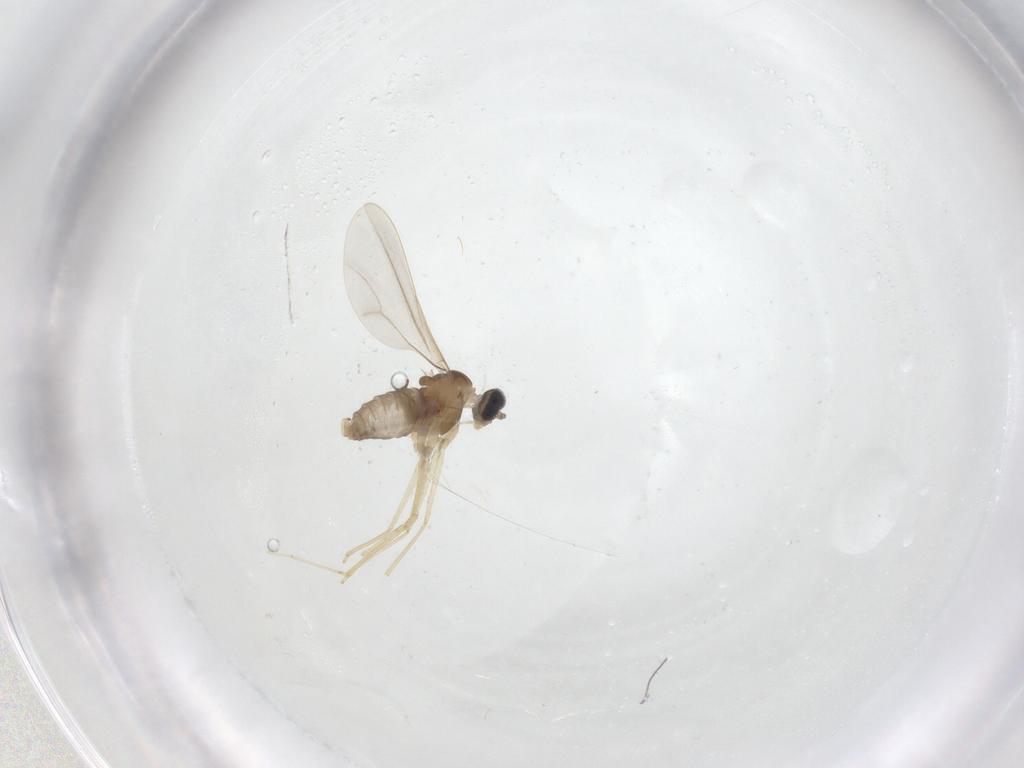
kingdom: Animalia
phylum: Arthropoda
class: Insecta
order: Diptera
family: Cecidomyiidae
